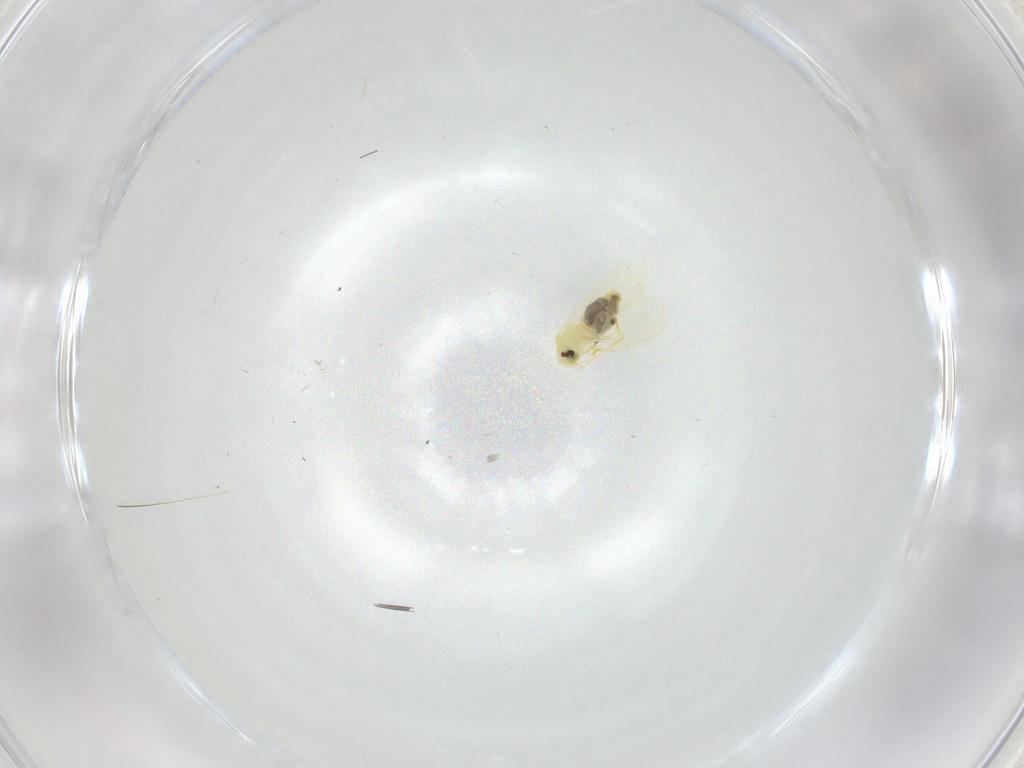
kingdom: Animalia
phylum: Arthropoda
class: Insecta
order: Hemiptera
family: Aleyrodidae
